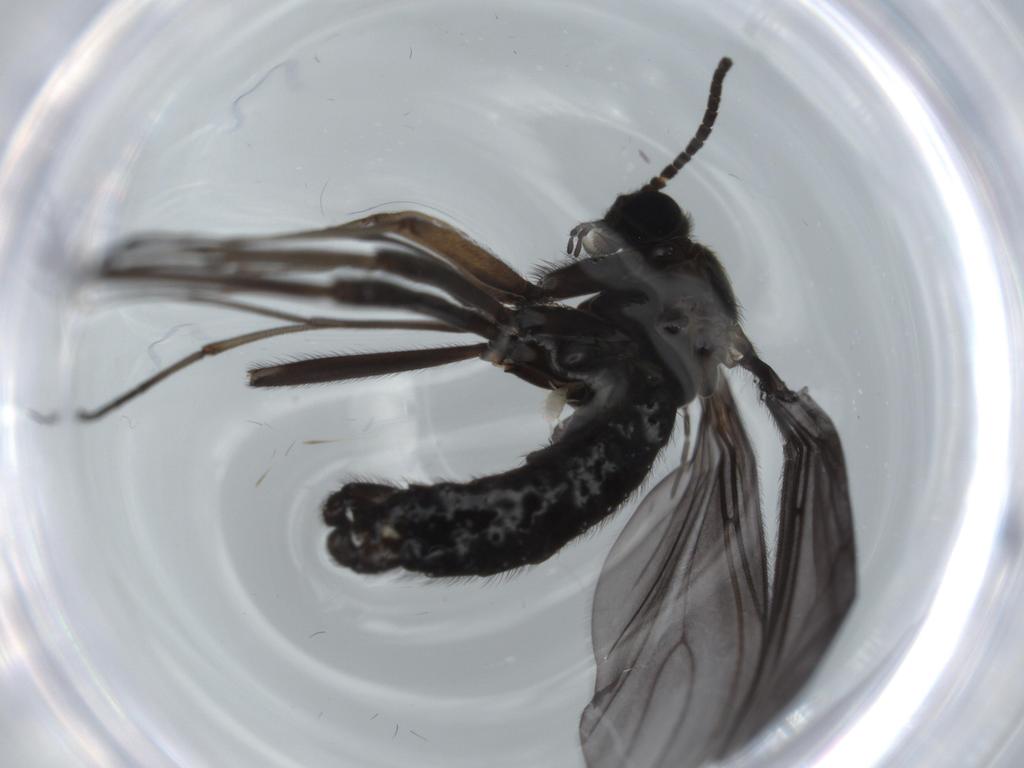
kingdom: Animalia
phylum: Arthropoda
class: Insecta
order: Diptera
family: Sciaridae
